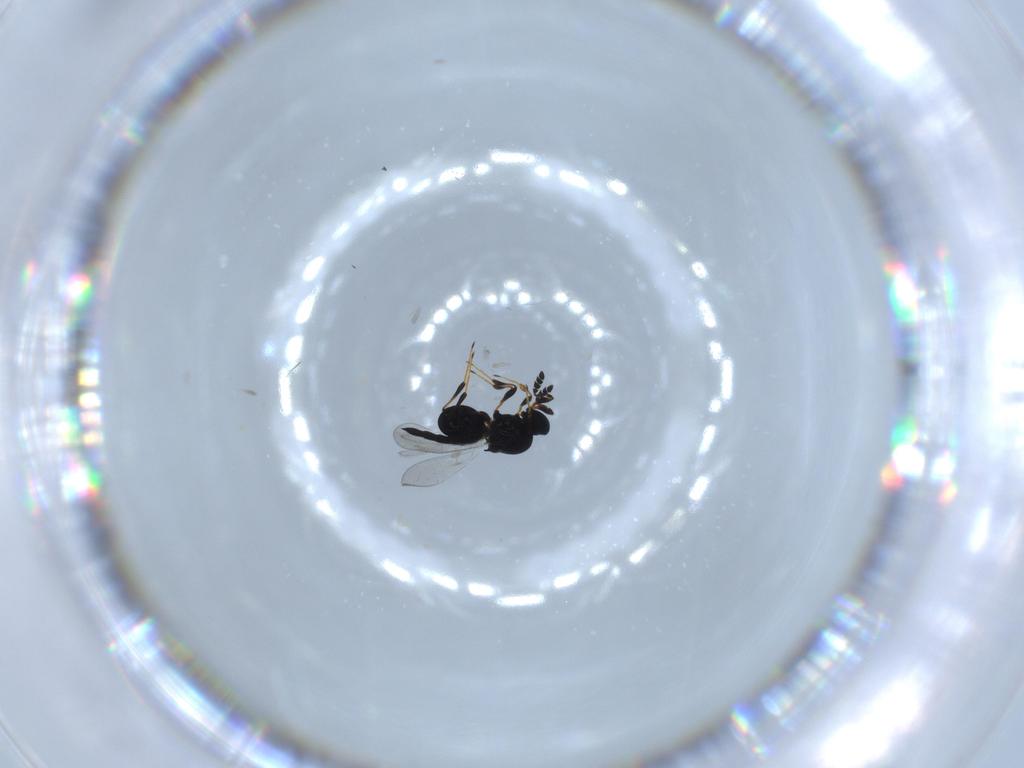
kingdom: Animalia
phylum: Arthropoda
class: Insecta
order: Hymenoptera
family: Platygastridae
